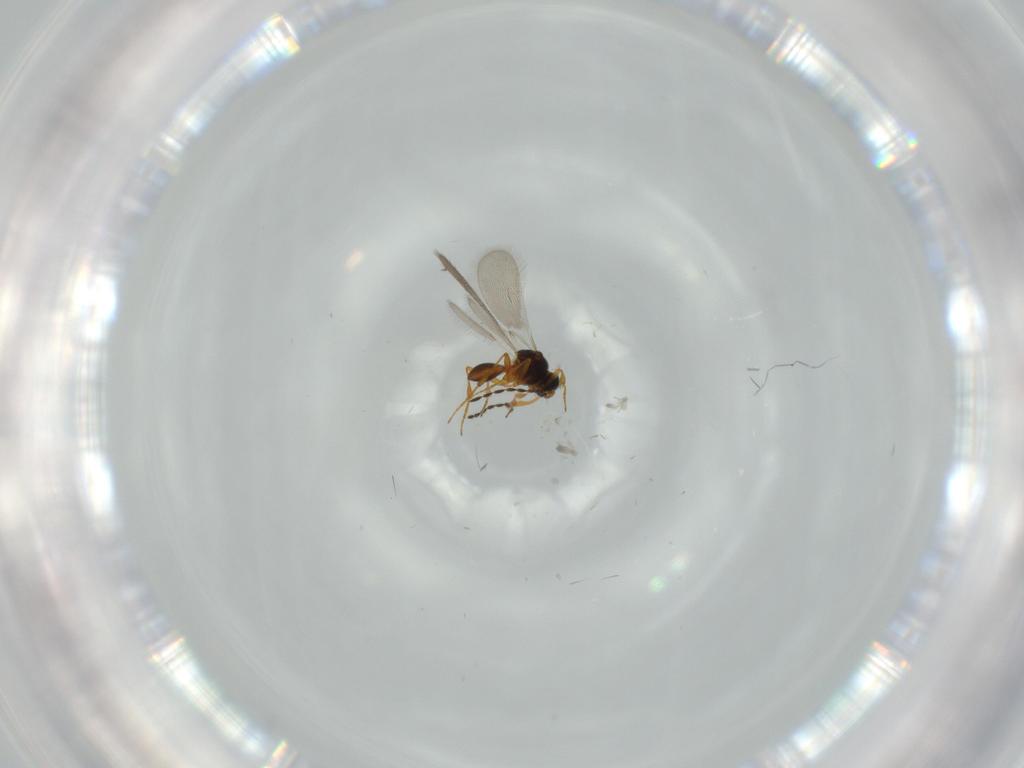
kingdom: Animalia
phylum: Arthropoda
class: Insecta
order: Hymenoptera
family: Platygastridae
